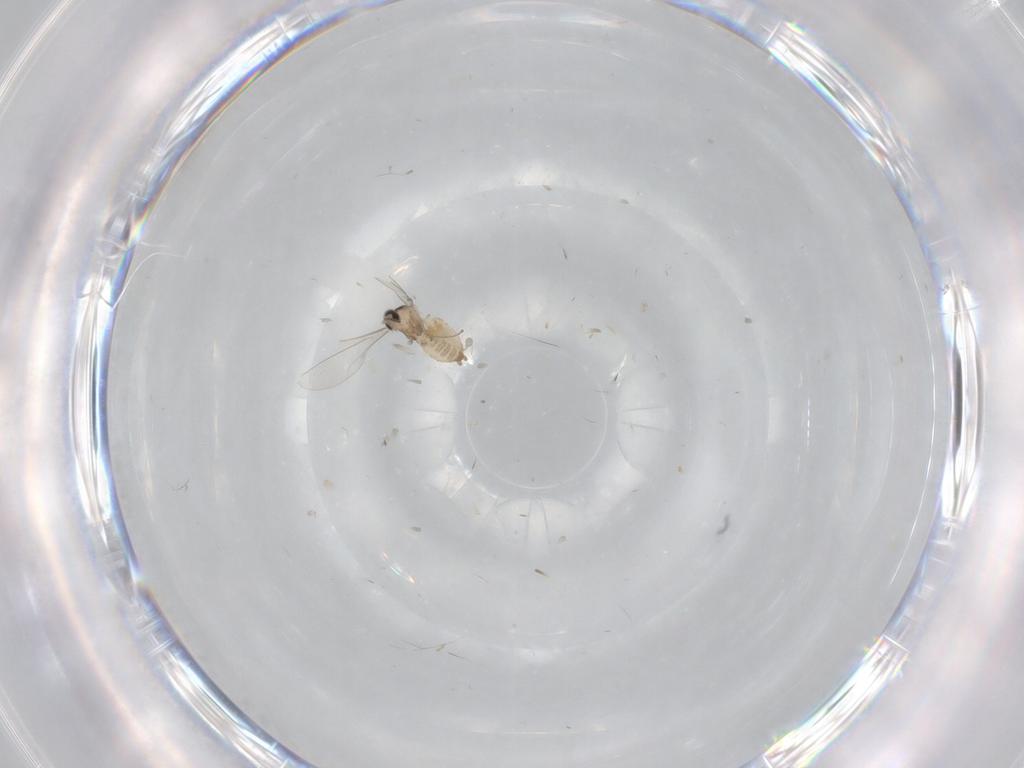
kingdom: Animalia
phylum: Arthropoda
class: Insecta
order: Diptera
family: Cecidomyiidae
